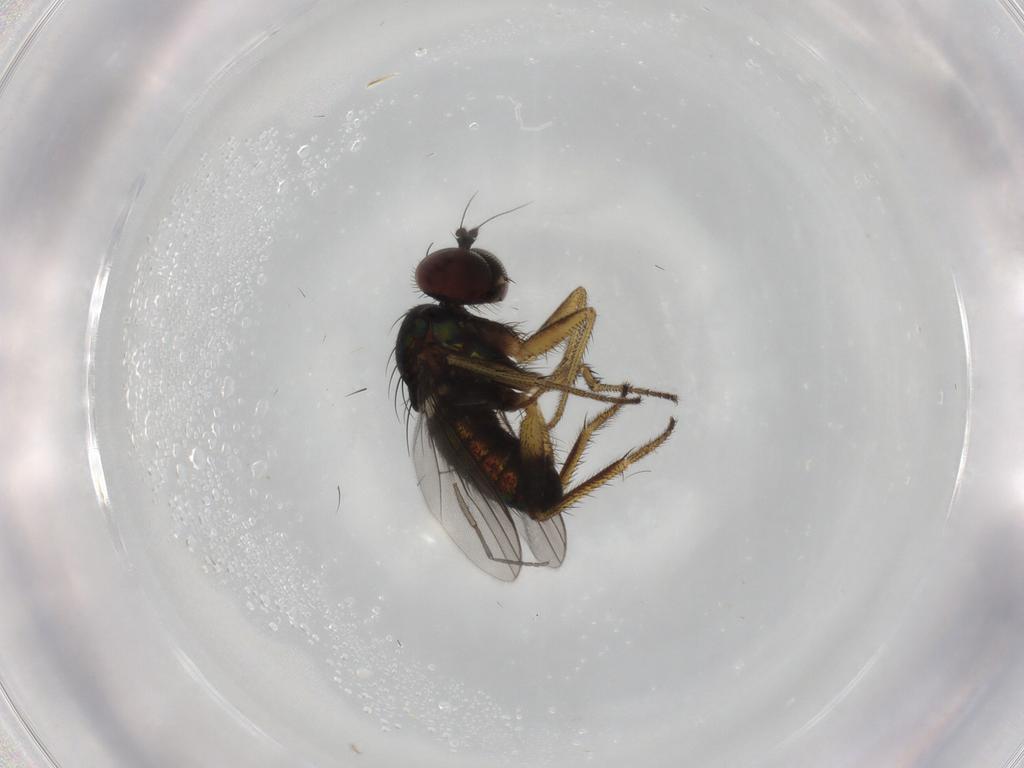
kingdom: Animalia
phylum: Arthropoda
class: Insecta
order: Diptera
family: Dolichopodidae
